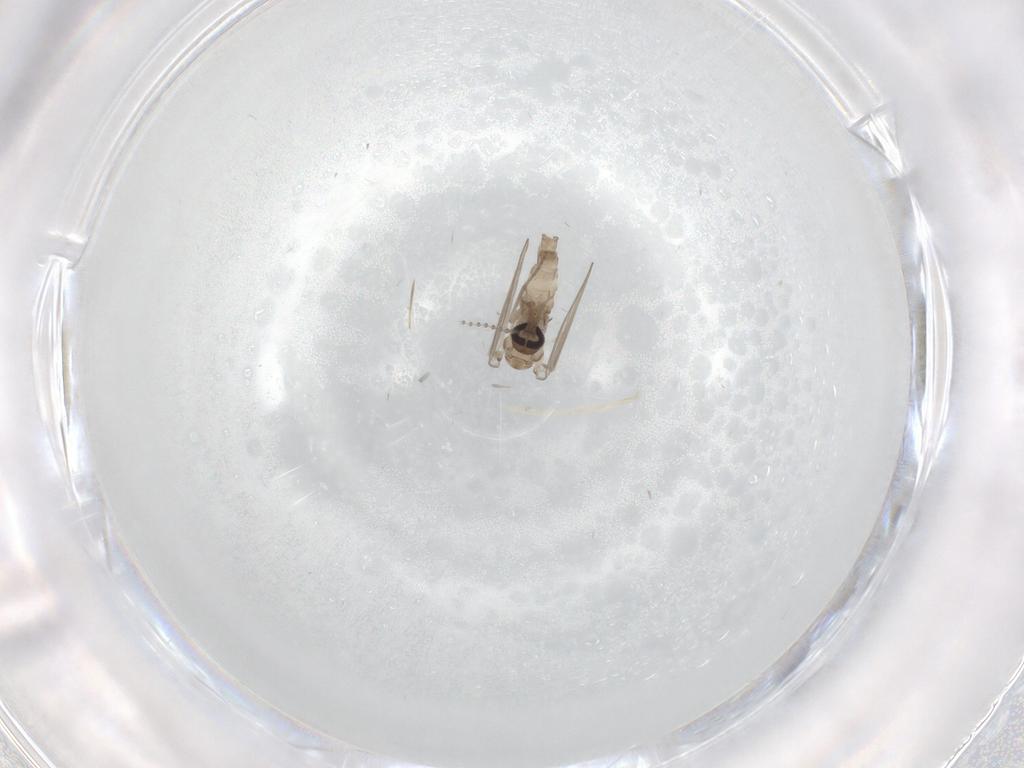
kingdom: Animalia
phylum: Arthropoda
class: Insecta
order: Diptera
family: Psychodidae
